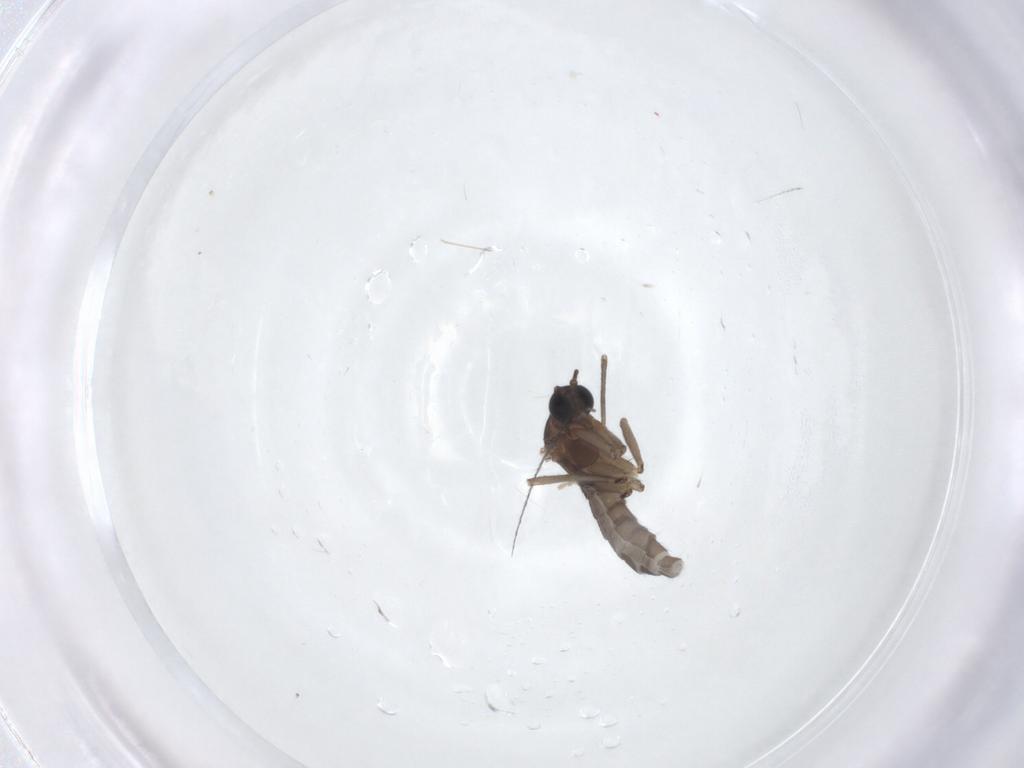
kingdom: Animalia
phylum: Arthropoda
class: Insecta
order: Diptera
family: Sciaridae
